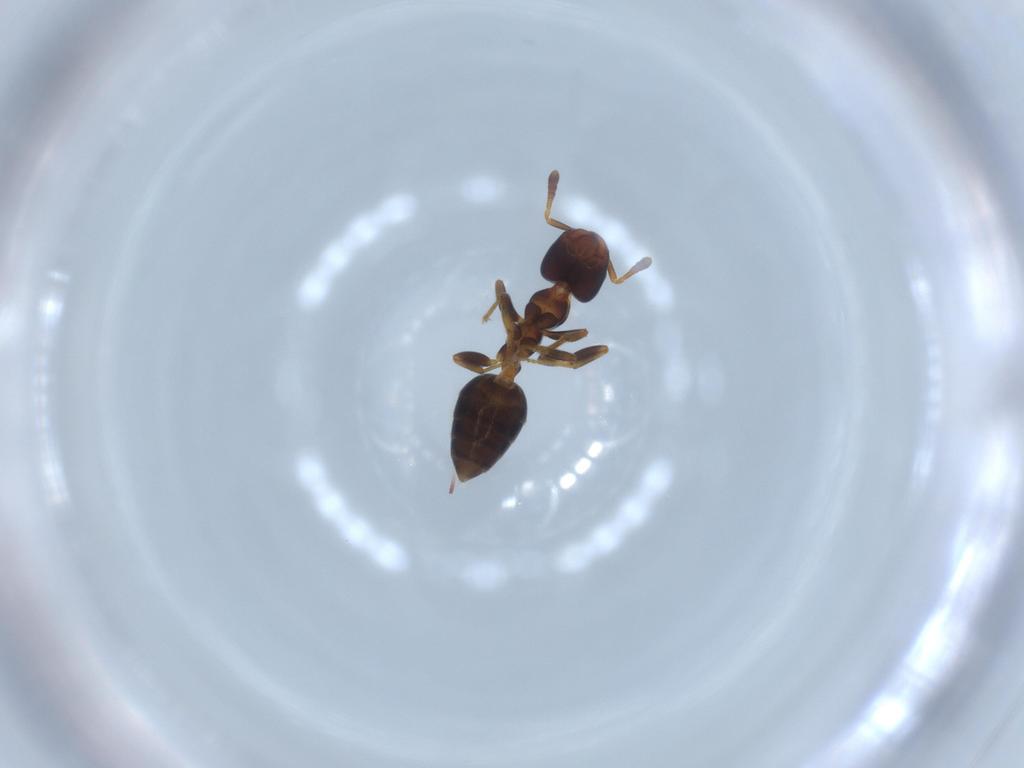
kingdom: Animalia
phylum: Arthropoda
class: Insecta
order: Hymenoptera
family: Formicidae
